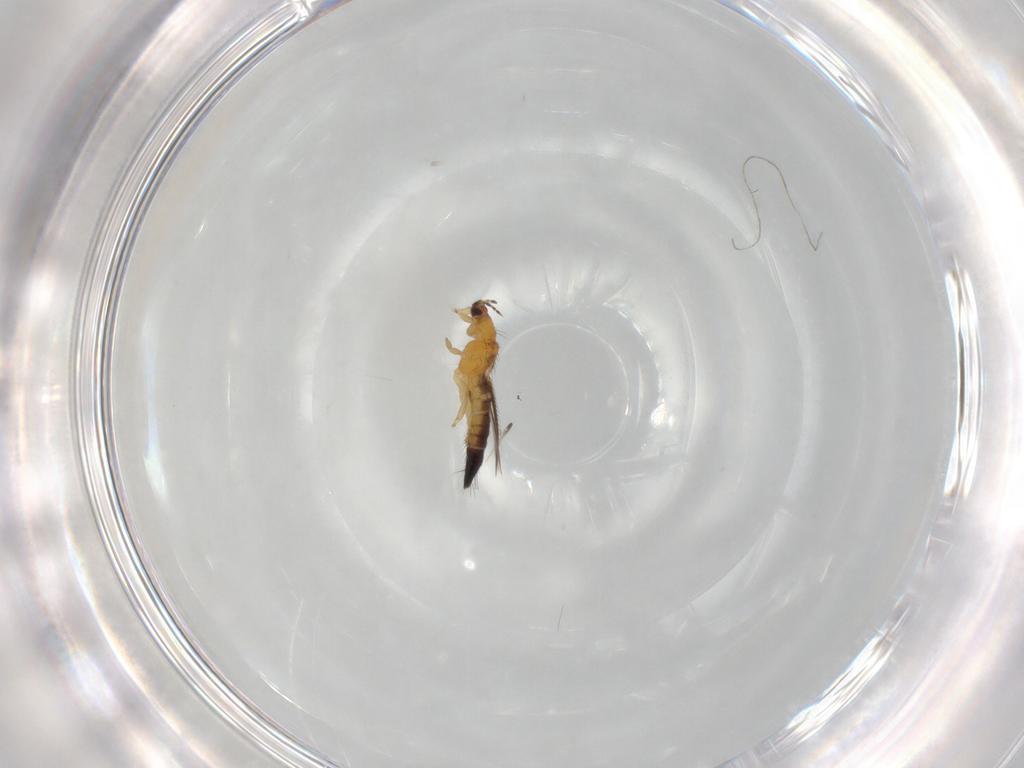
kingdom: Animalia
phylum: Arthropoda
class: Insecta
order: Thysanoptera
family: Thripidae
